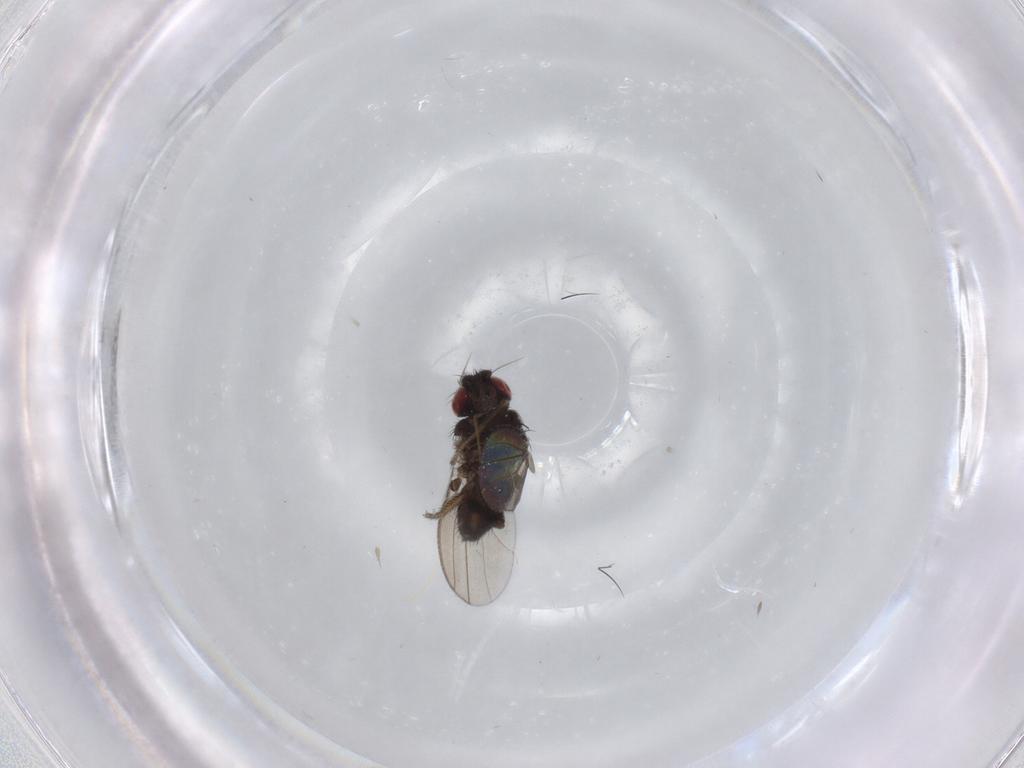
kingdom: Animalia
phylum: Arthropoda
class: Insecta
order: Diptera
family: Milichiidae
